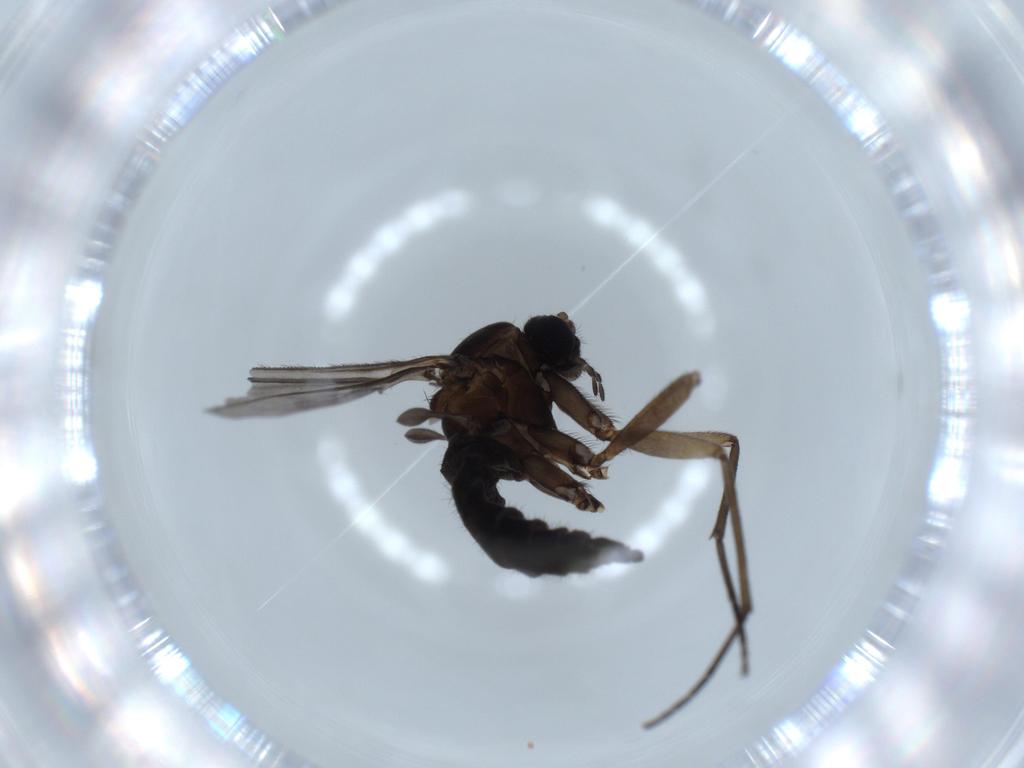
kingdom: Animalia
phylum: Arthropoda
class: Insecta
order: Diptera
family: Sciaridae
